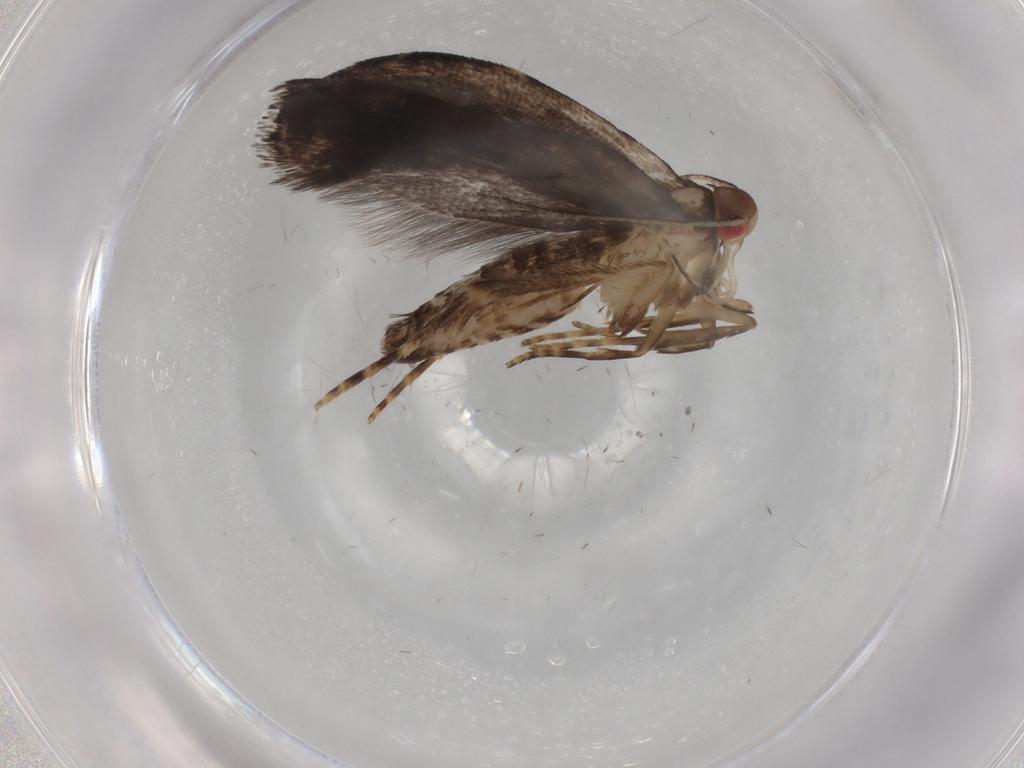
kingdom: Animalia
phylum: Arthropoda
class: Insecta
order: Lepidoptera
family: Gelechiidae
